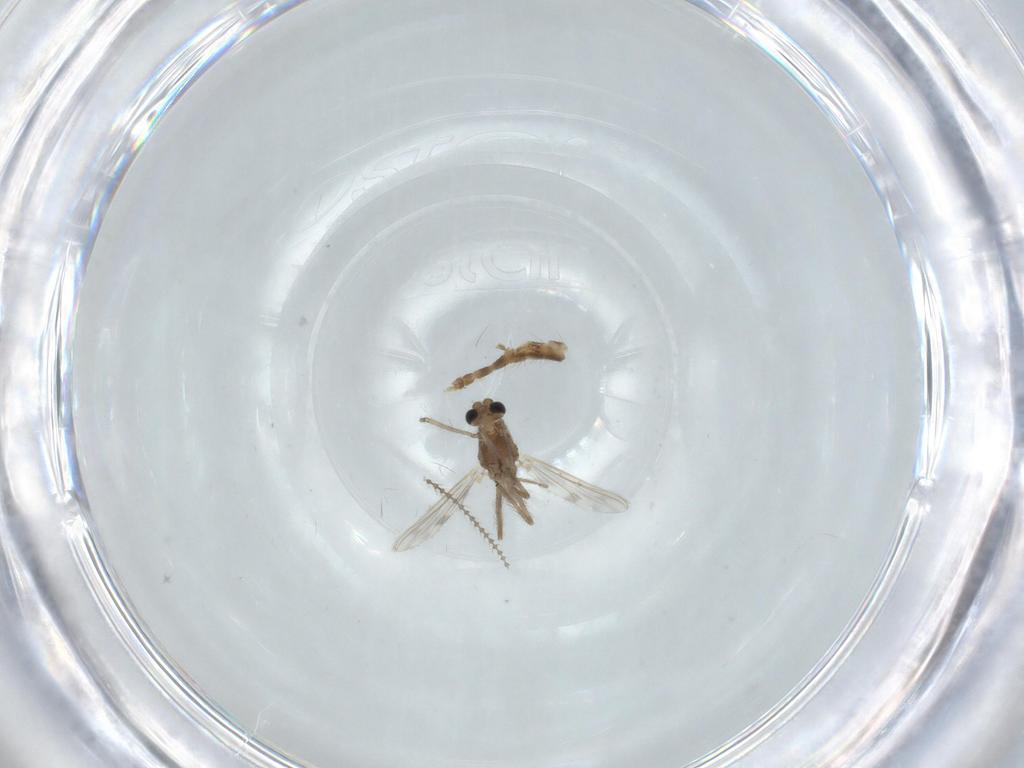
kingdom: Animalia
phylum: Arthropoda
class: Insecta
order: Diptera
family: Chironomidae
